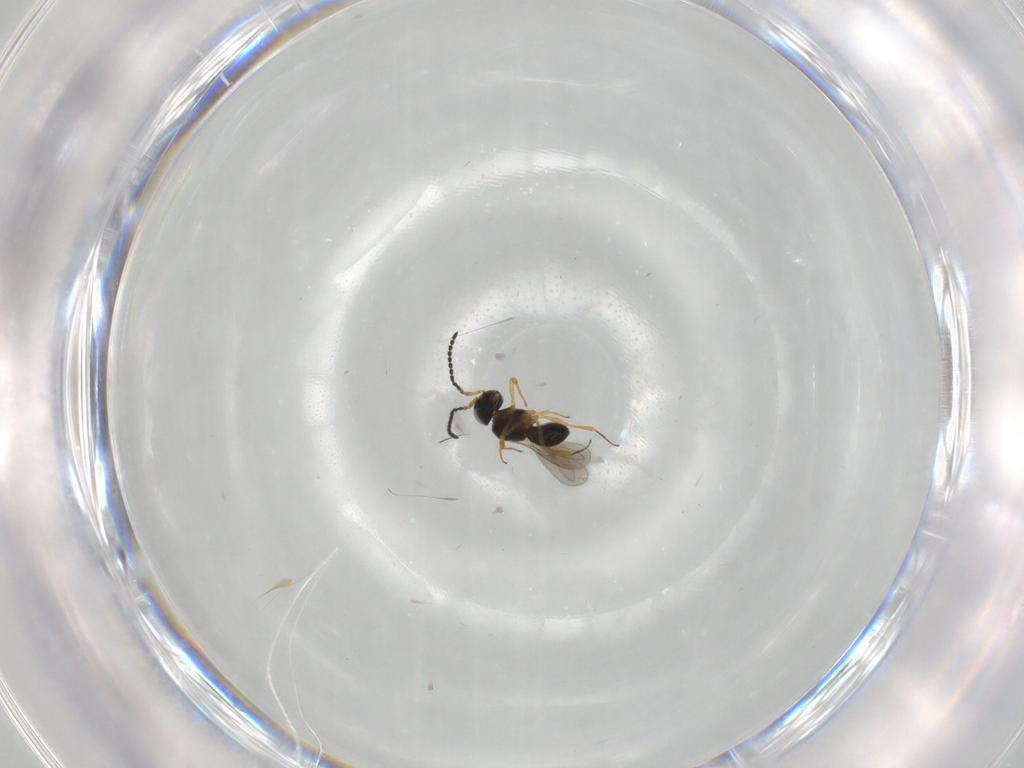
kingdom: Animalia
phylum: Arthropoda
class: Insecta
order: Hymenoptera
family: Scelionidae
